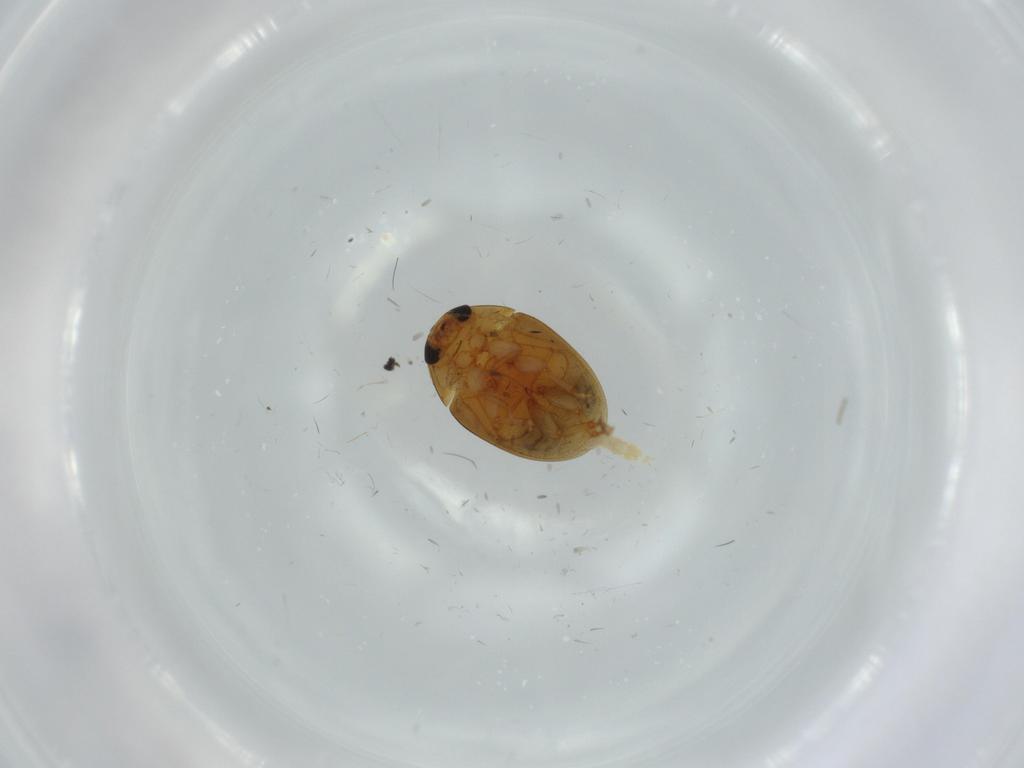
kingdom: Animalia
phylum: Arthropoda
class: Insecta
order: Coleoptera
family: Phalacridae
